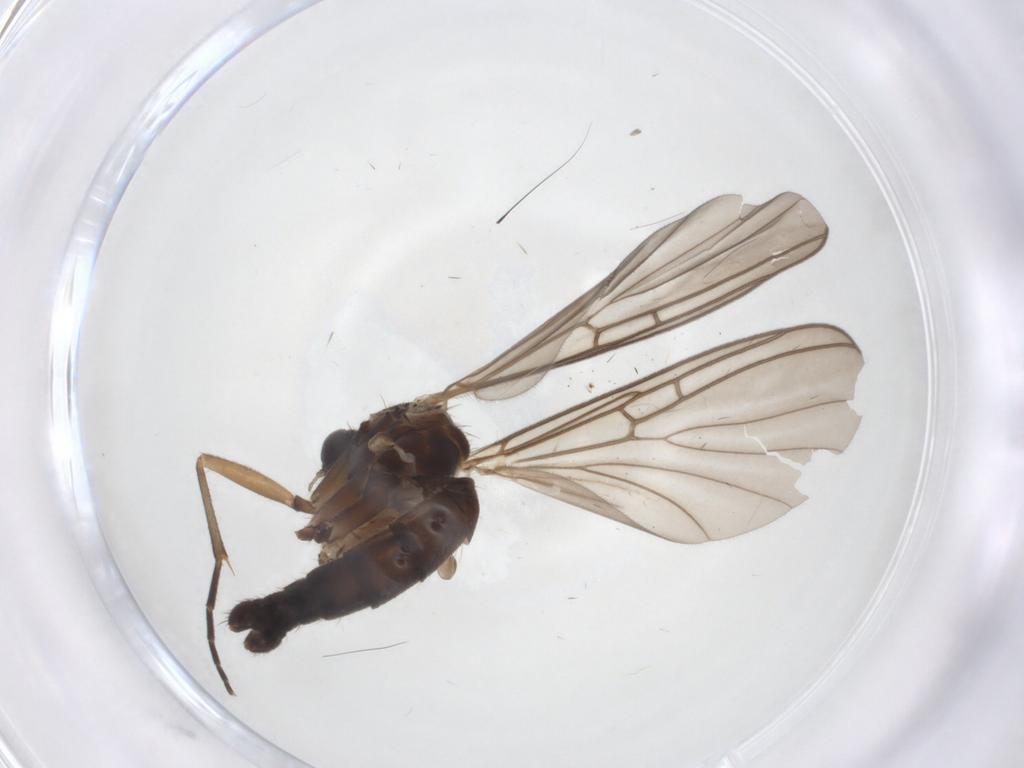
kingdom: Animalia
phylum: Arthropoda
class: Insecta
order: Diptera
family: Mycetophilidae
